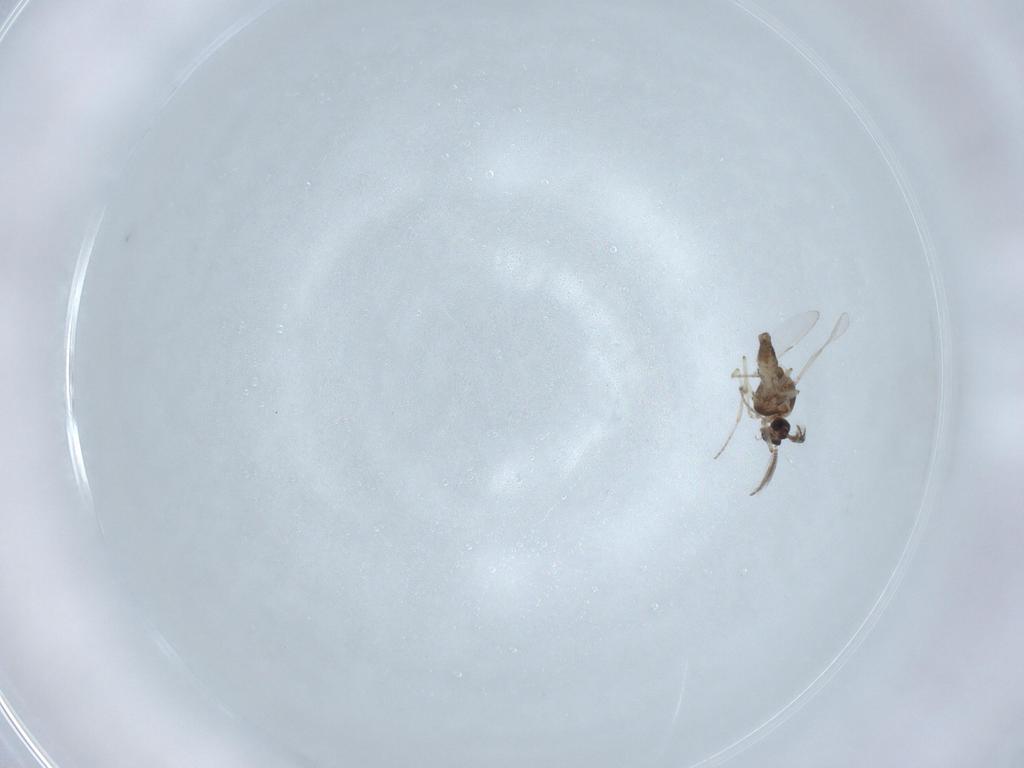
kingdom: Animalia
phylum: Arthropoda
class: Insecta
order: Diptera
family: Ceratopogonidae
